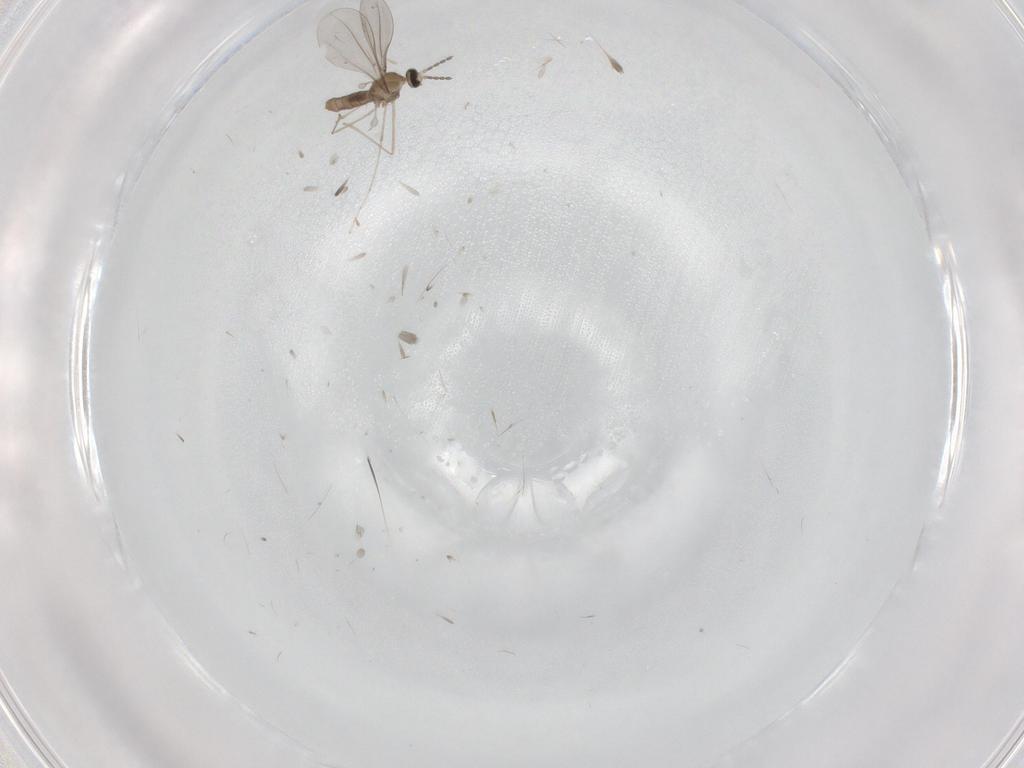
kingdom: Animalia
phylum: Arthropoda
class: Insecta
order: Diptera
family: Chironomidae
